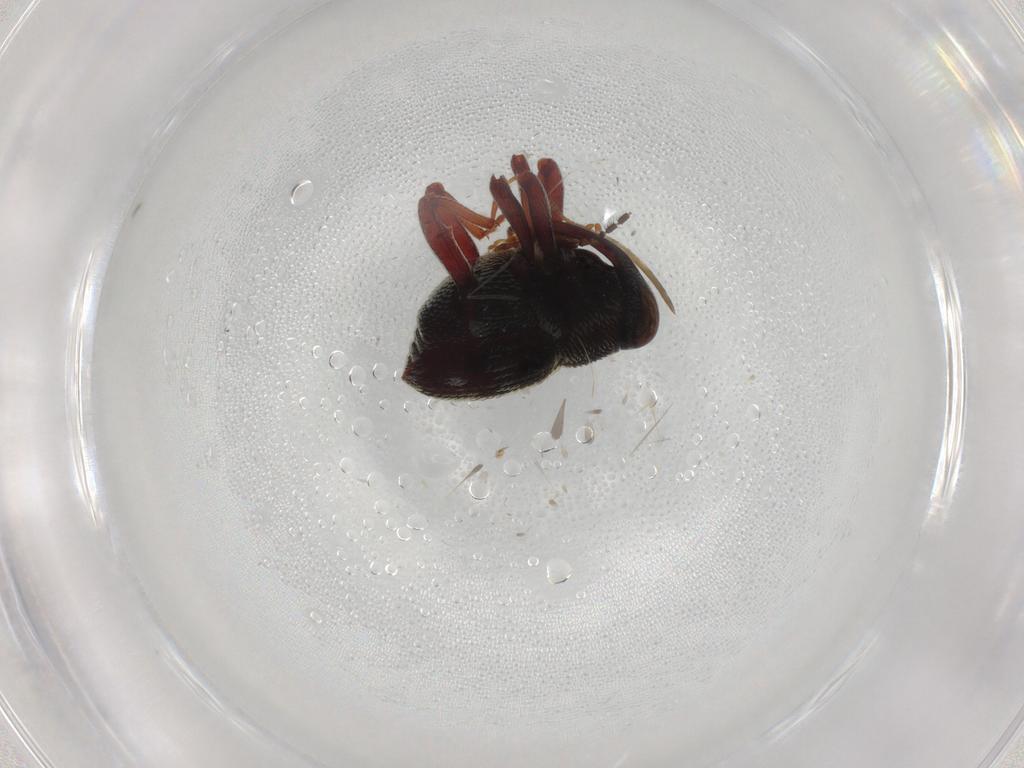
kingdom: Animalia
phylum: Arthropoda
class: Insecta
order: Coleoptera
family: Curculionidae
